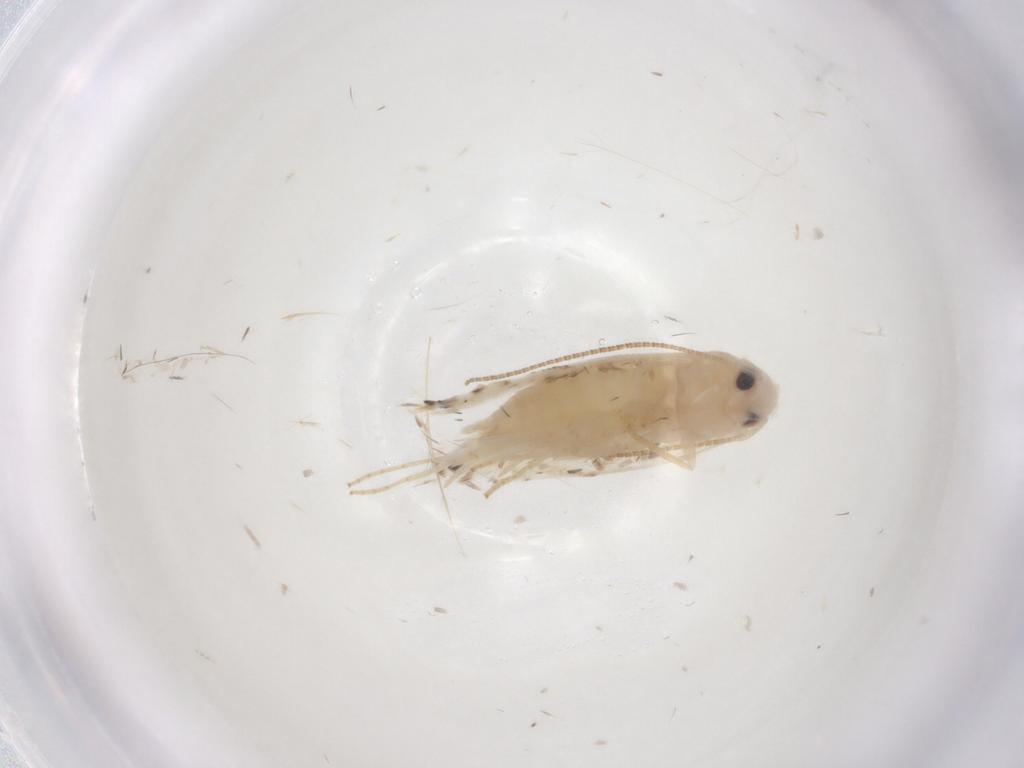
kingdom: Animalia
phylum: Arthropoda
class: Insecta
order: Lepidoptera
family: Gracillariidae
